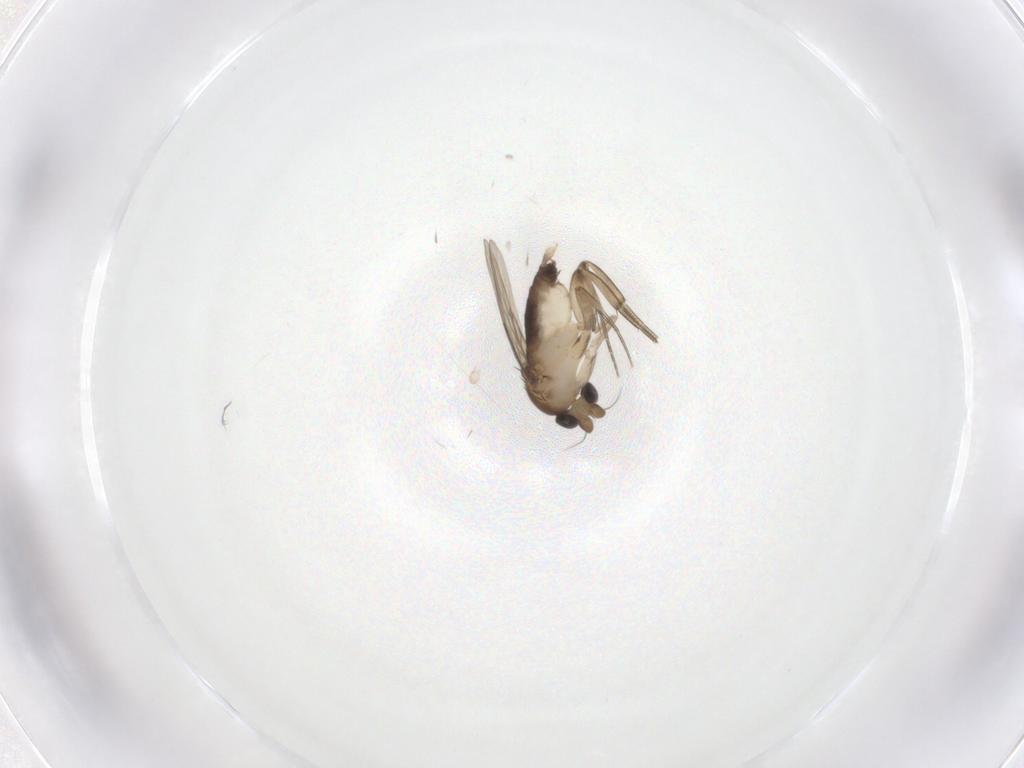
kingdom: Animalia
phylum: Arthropoda
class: Insecta
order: Diptera
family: Phoridae
